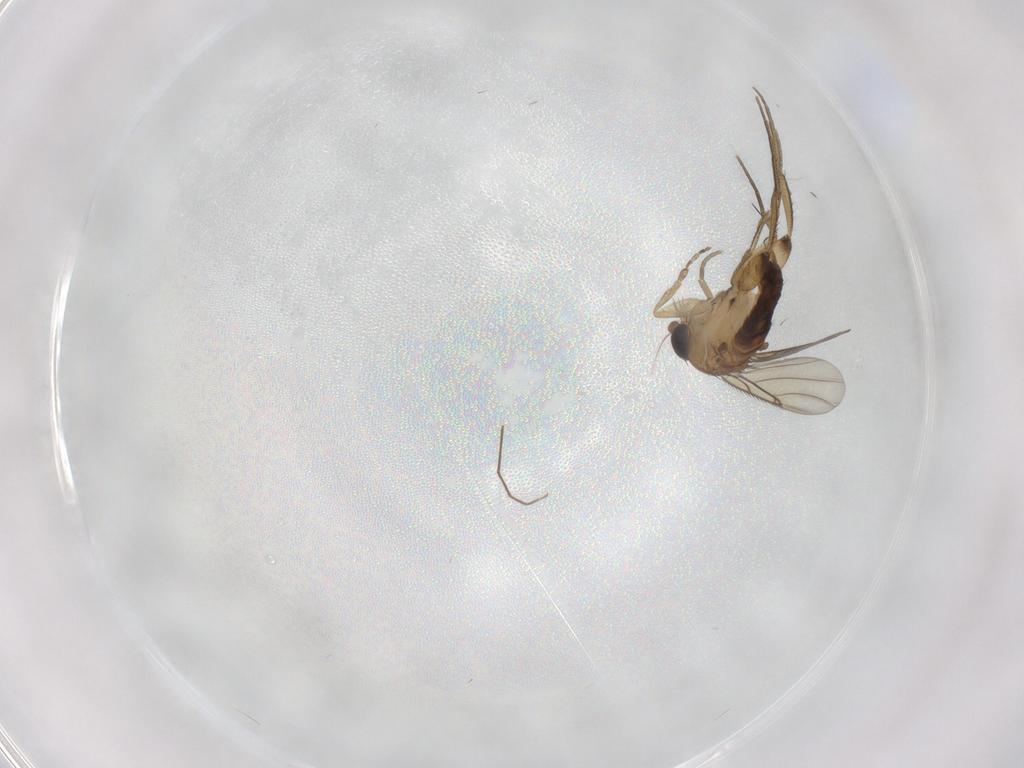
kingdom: Animalia
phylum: Arthropoda
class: Insecta
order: Diptera
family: Phoridae
